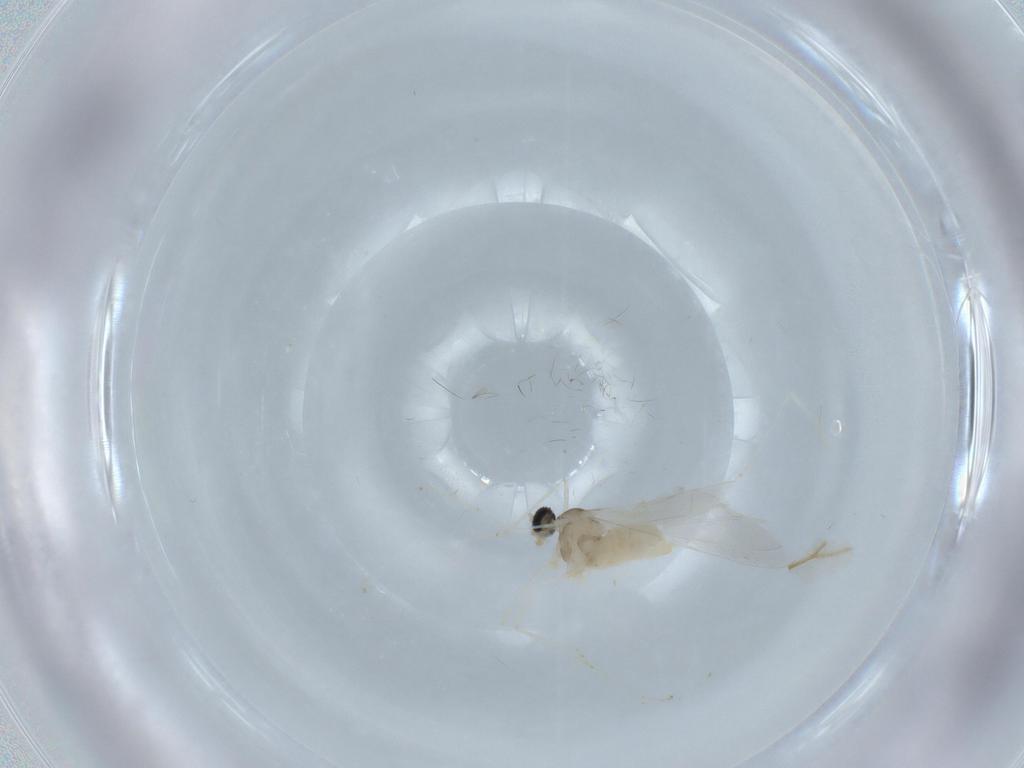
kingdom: Animalia
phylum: Arthropoda
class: Insecta
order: Diptera
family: Cecidomyiidae
